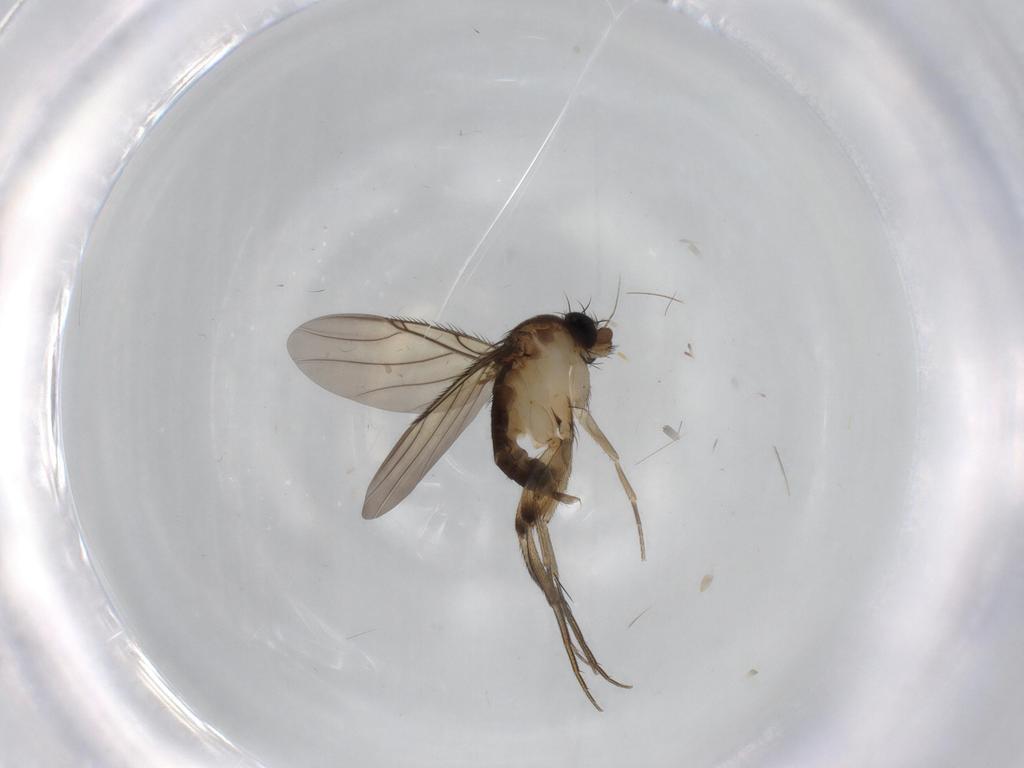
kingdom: Animalia
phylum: Arthropoda
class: Insecta
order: Diptera
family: Phoridae
